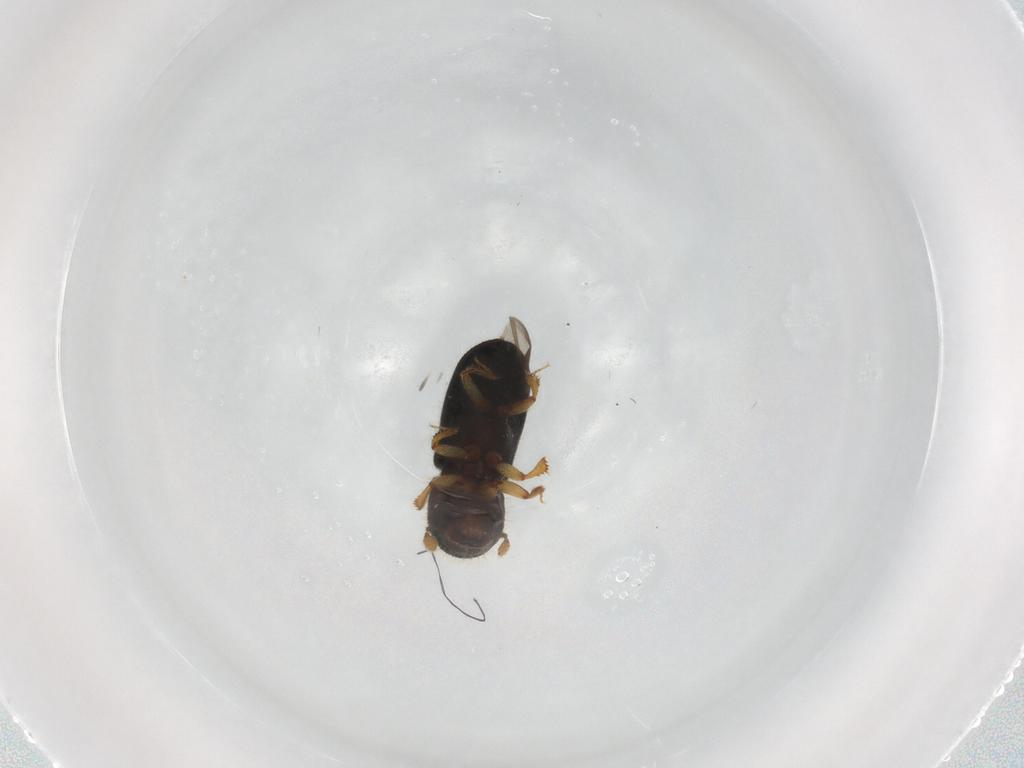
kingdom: Animalia
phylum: Arthropoda
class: Insecta
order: Coleoptera
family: Curculionidae
